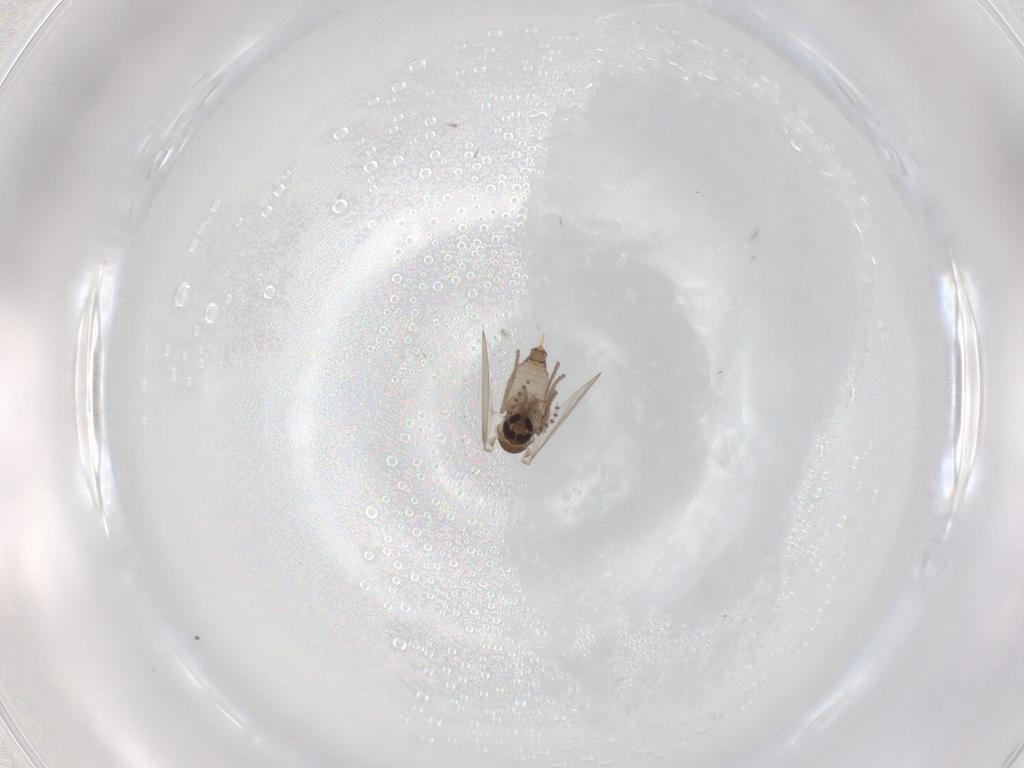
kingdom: Animalia
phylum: Arthropoda
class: Insecta
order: Diptera
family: Psychodidae
